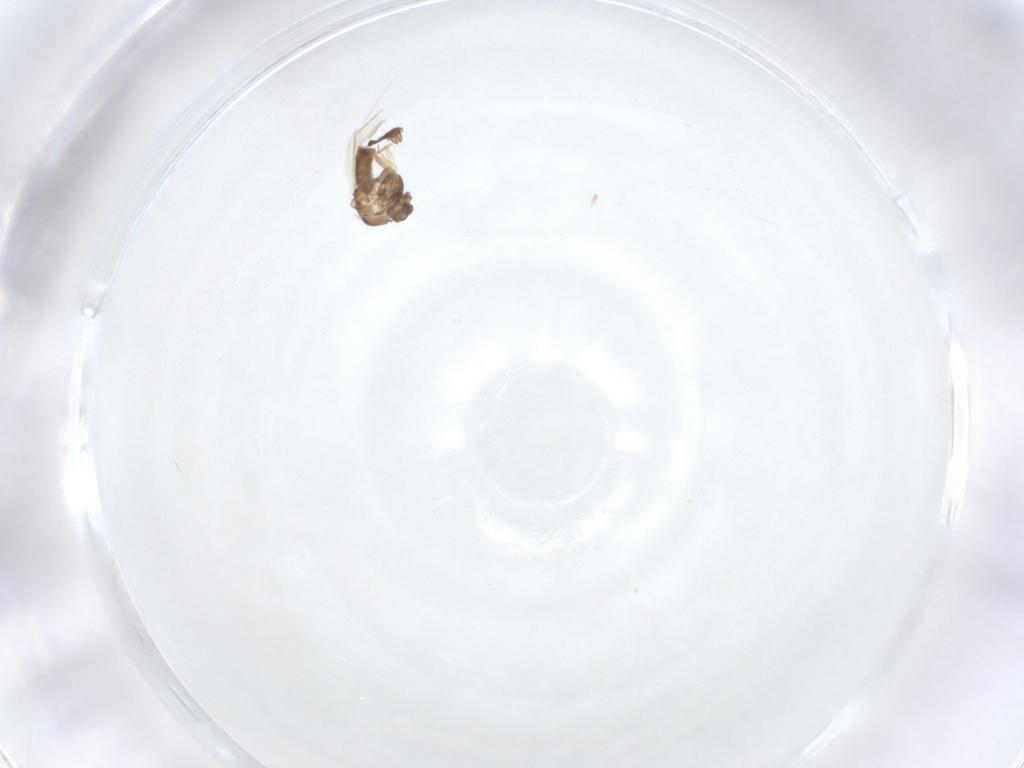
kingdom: Animalia
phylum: Arthropoda
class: Insecta
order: Diptera
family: Chironomidae
